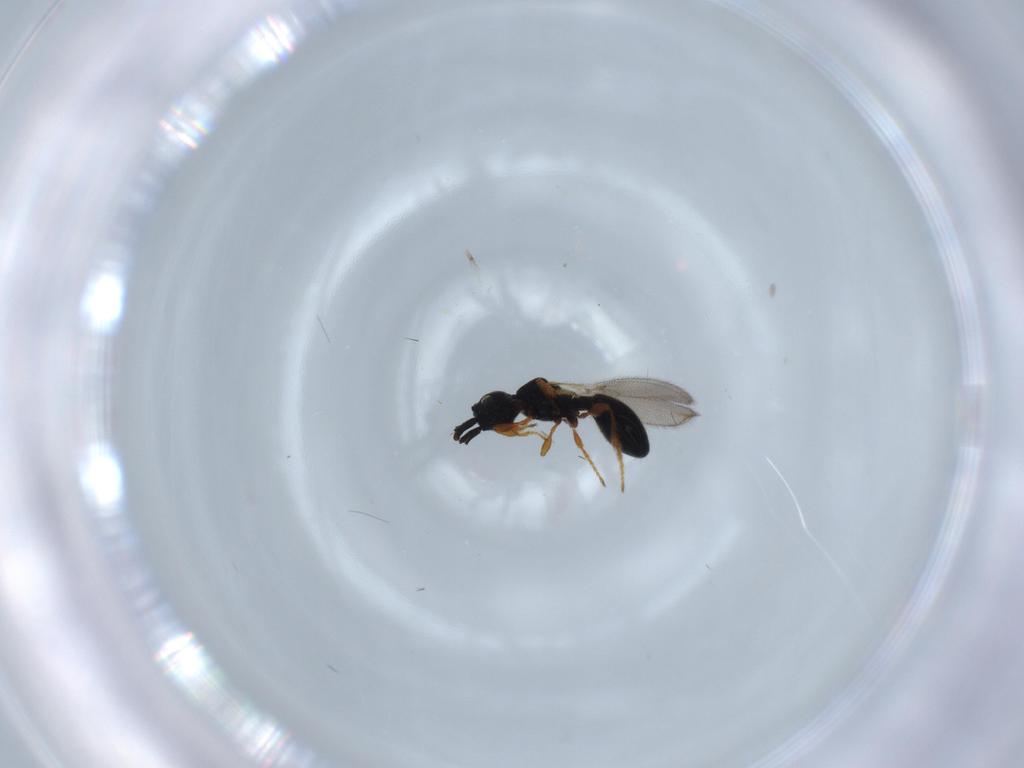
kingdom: Animalia
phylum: Arthropoda
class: Insecta
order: Hymenoptera
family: Diapriidae
